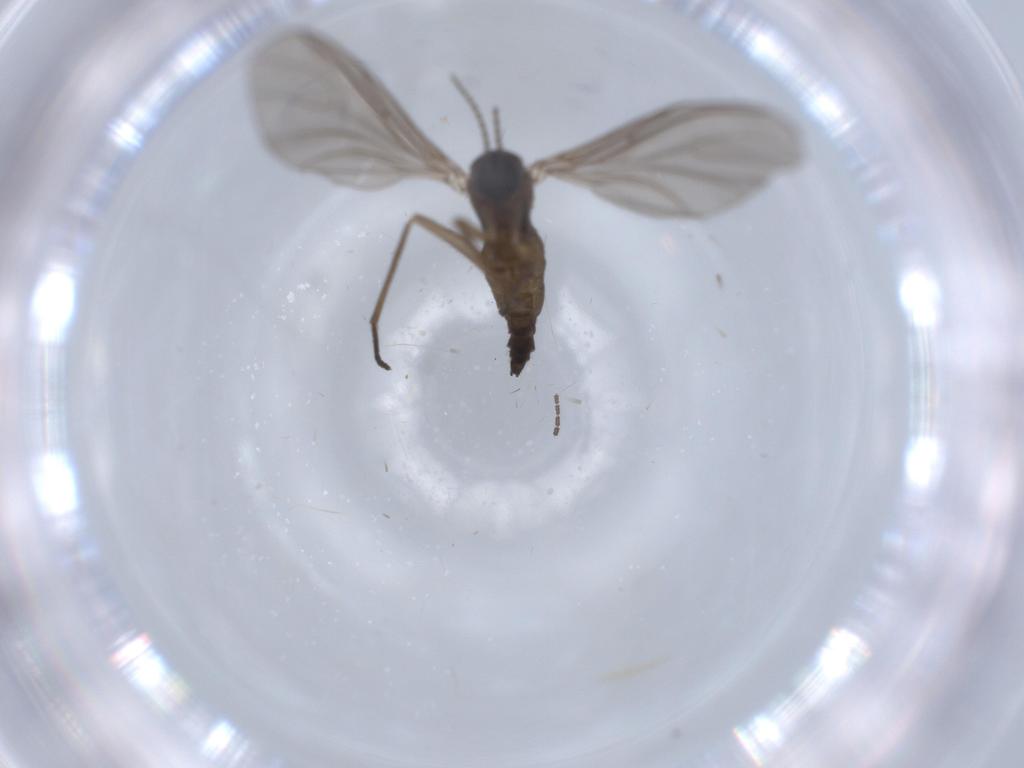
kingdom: Animalia
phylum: Arthropoda
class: Insecta
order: Diptera
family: Sciaridae
